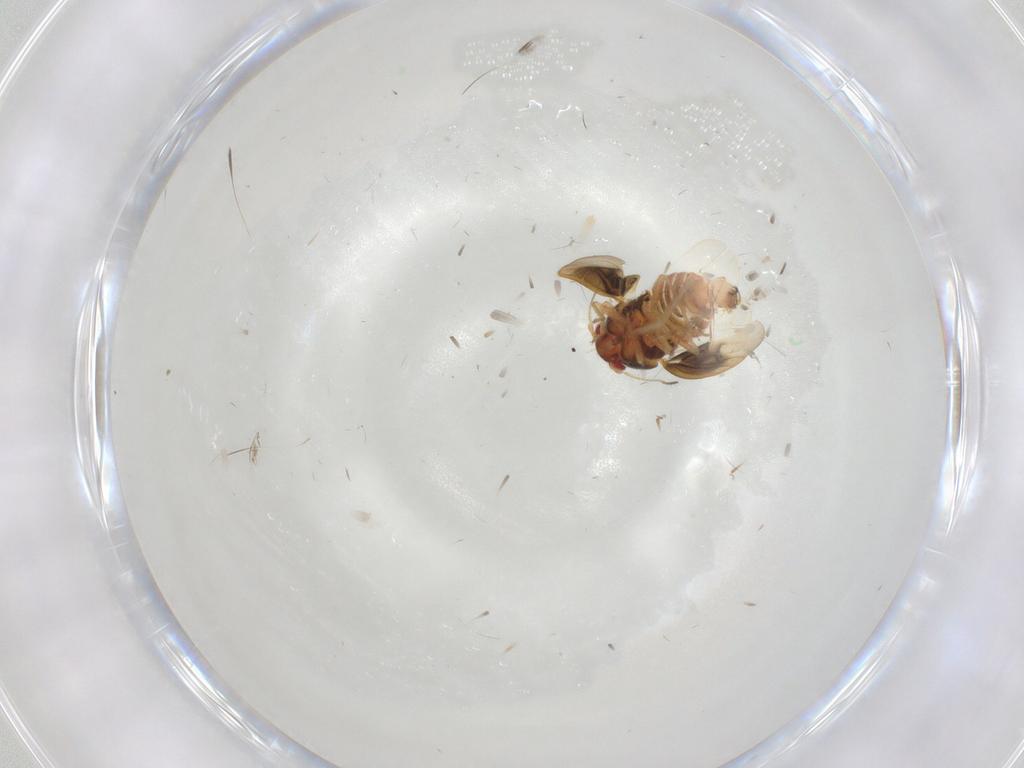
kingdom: Animalia
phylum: Arthropoda
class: Insecta
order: Hemiptera
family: Schizopteridae
